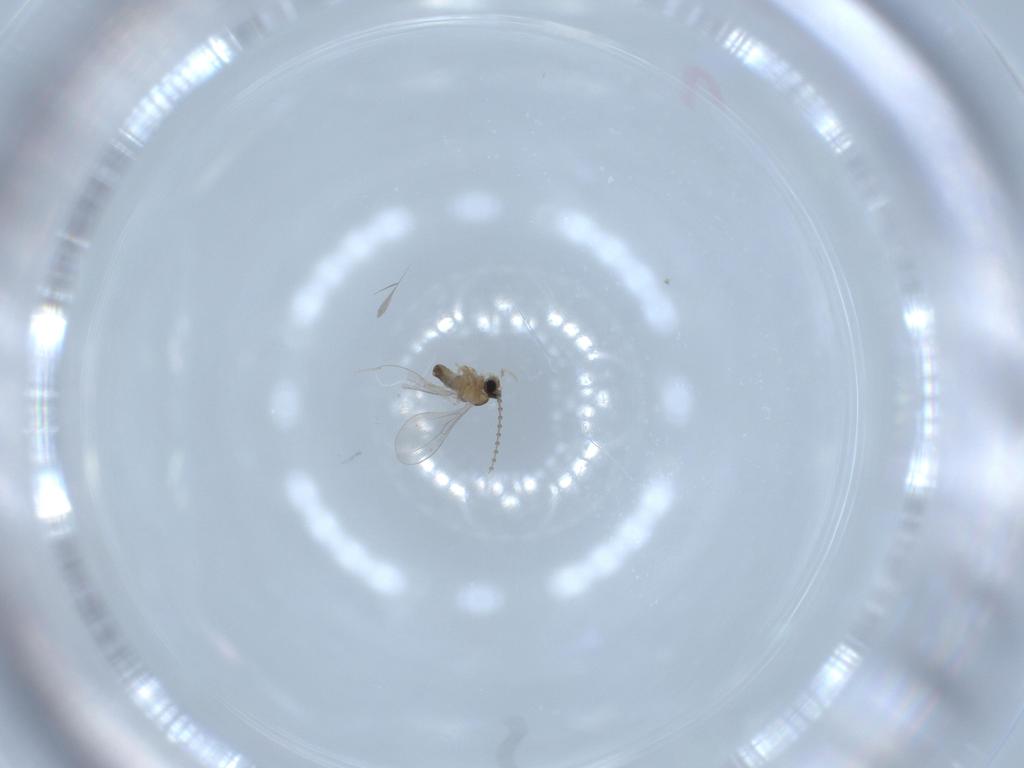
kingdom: Animalia
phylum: Arthropoda
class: Insecta
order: Diptera
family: Cecidomyiidae
